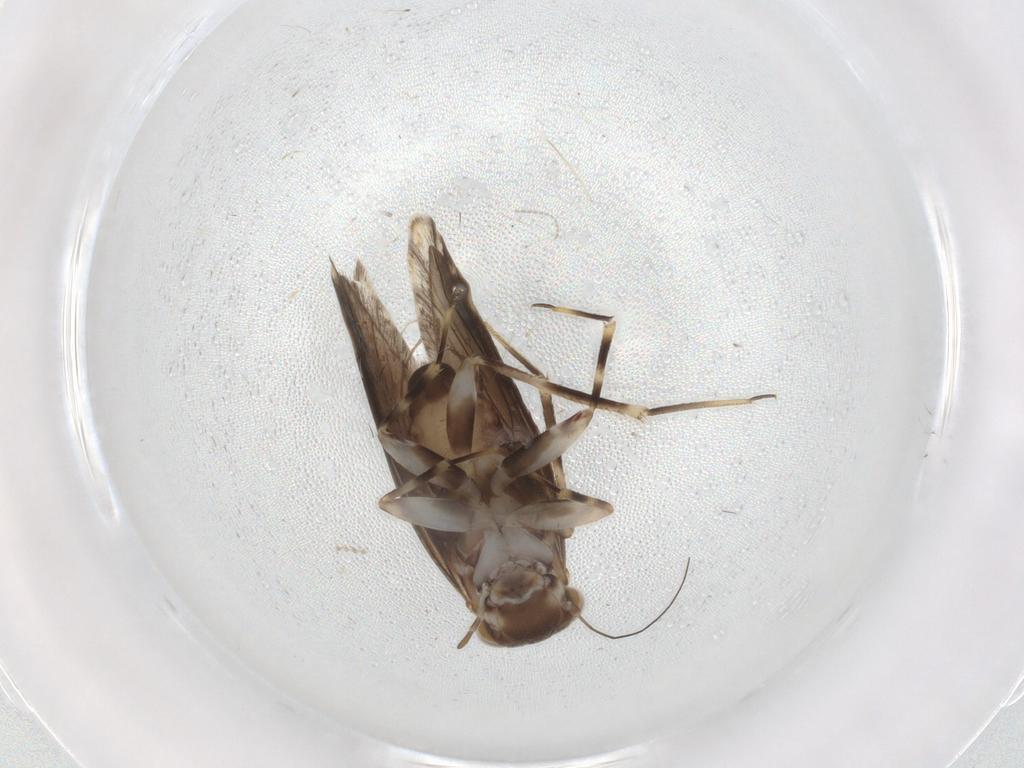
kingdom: Animalia
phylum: Arthropoda
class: Insecta
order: Psocodea
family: Amphientomidae
